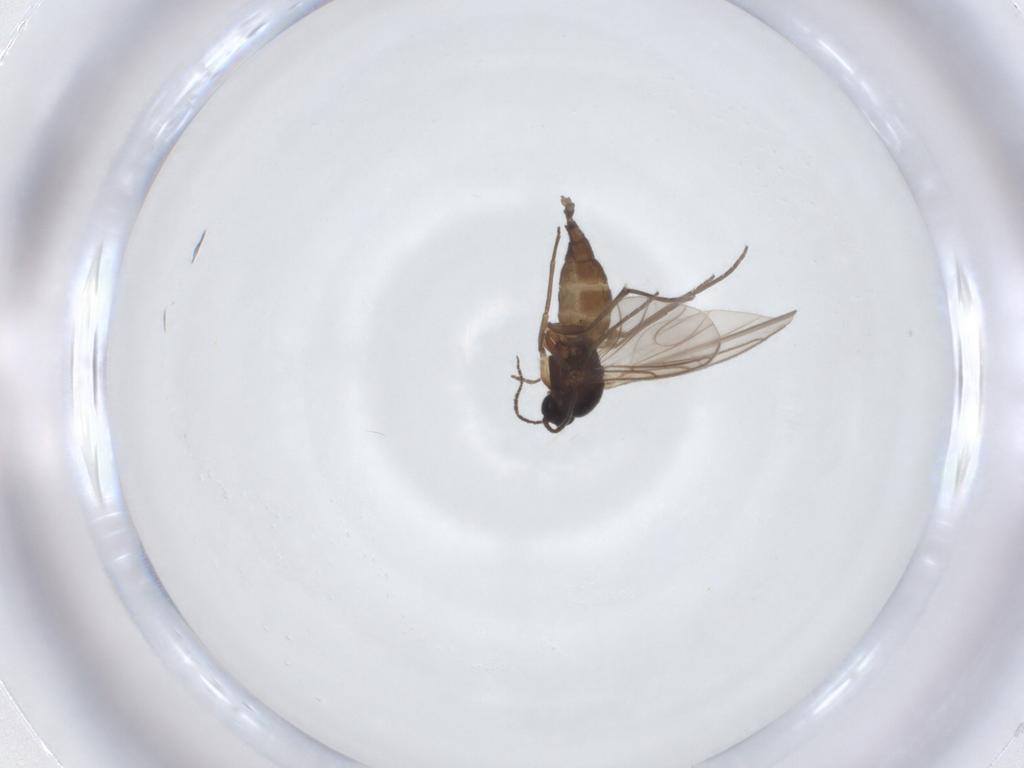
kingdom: Animalia
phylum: Arthropoda
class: Insecta
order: Diptera
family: Sciaridae
